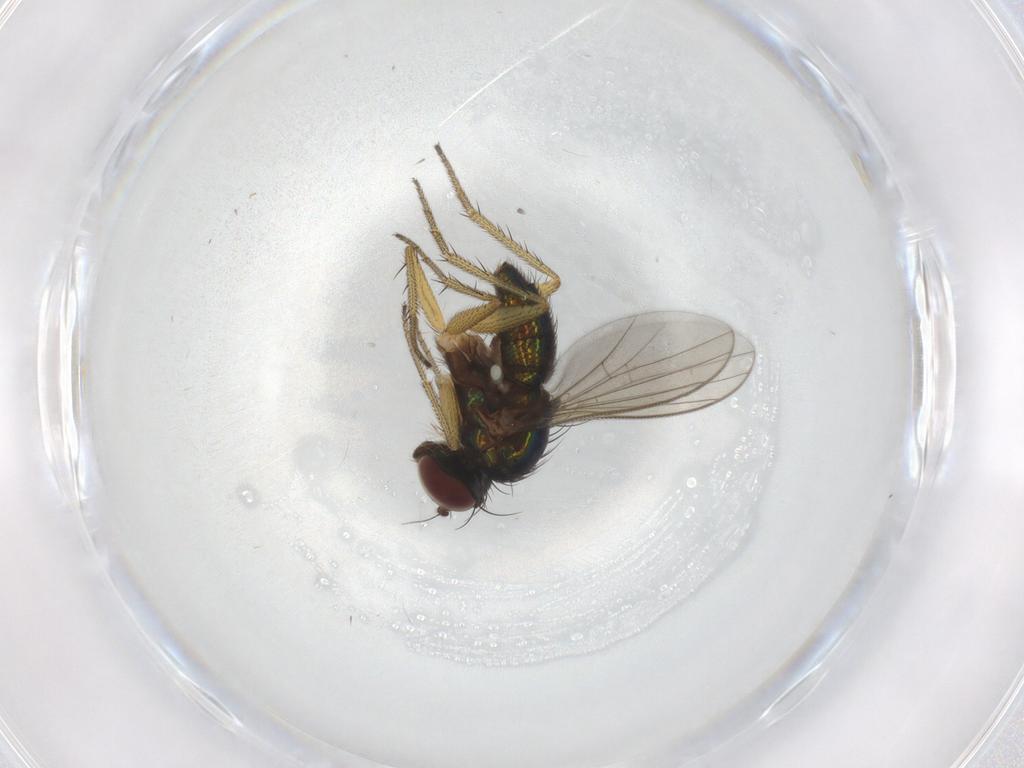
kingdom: Animalia
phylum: Arthropoda
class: Insecta
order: Diptera
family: Dolichopodidae
